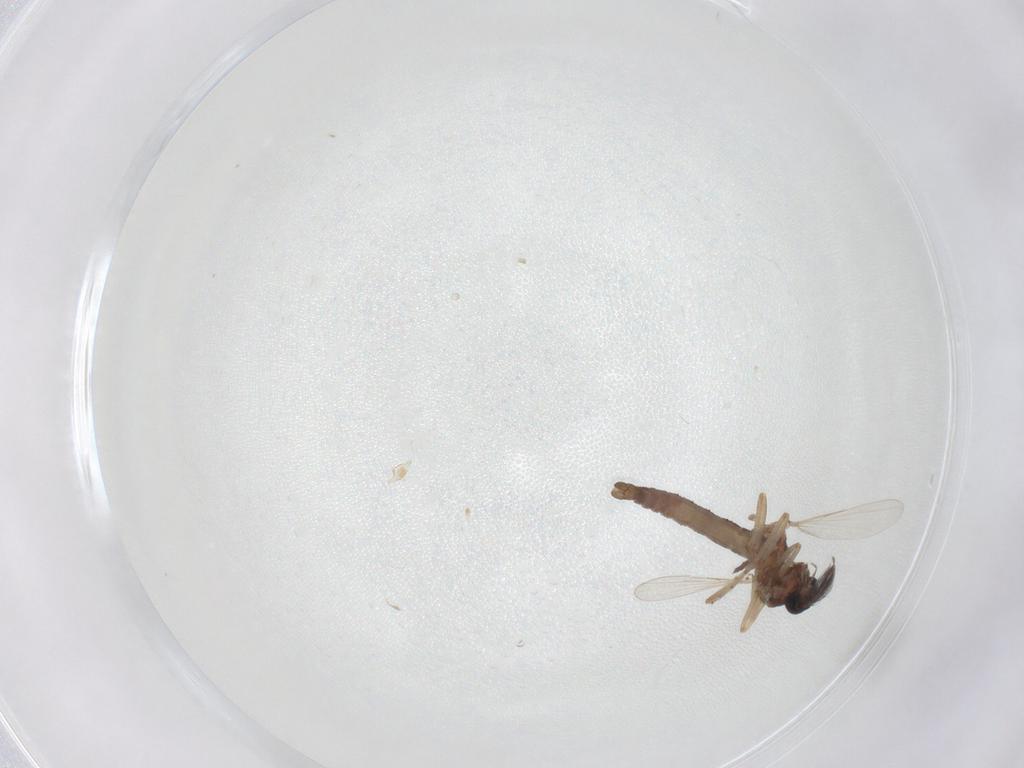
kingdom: Animalia
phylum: Arthropoda
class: Insecta
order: Diptera
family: Ceratopogonidae
